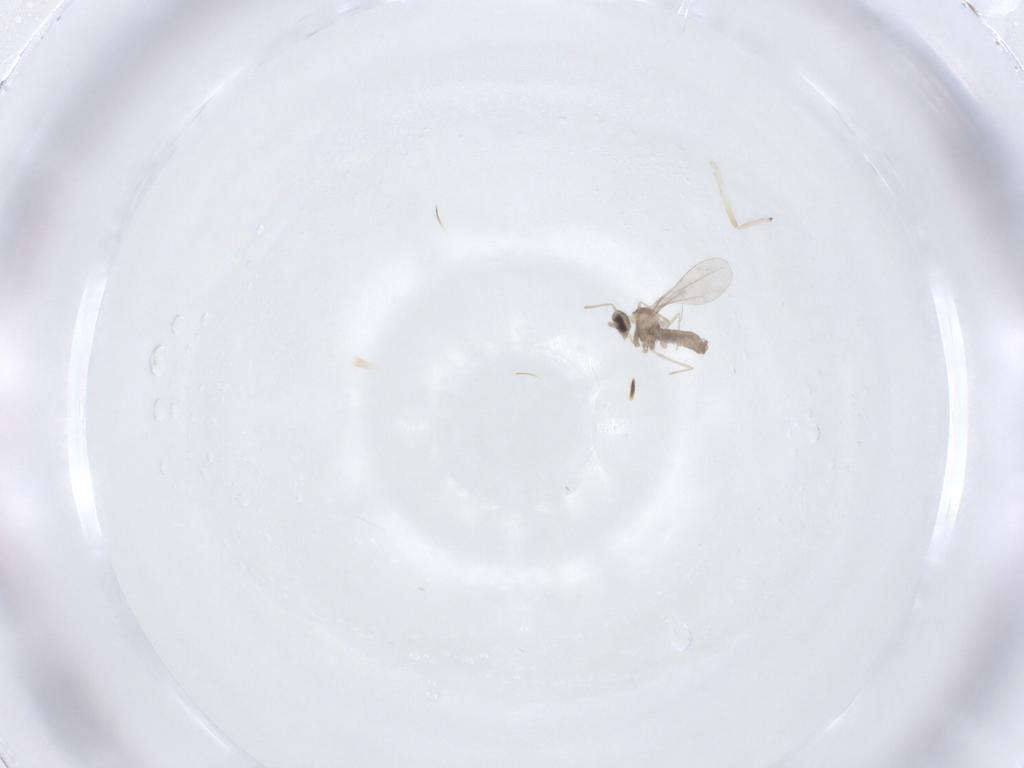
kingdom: Animalia
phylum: Arthropoda
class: Insecta
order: Diptera
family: Cecidomyiidae
